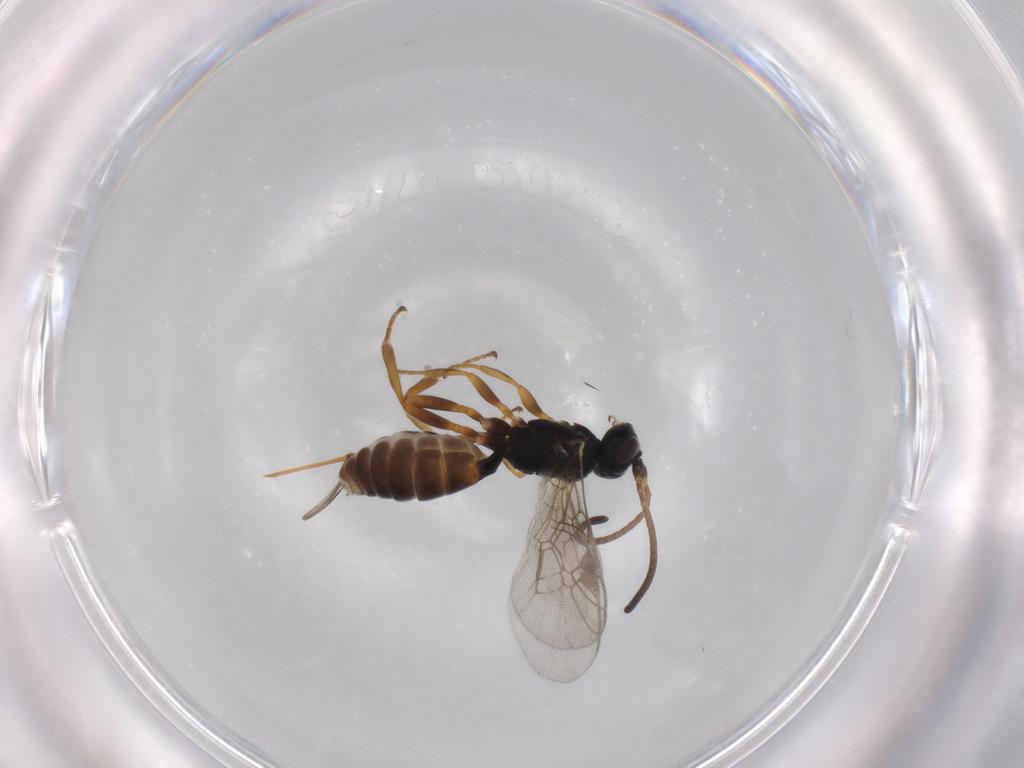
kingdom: Animalia
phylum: Arthropoda
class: Insecta
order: Hymenoptera
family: Ichneumonidae
